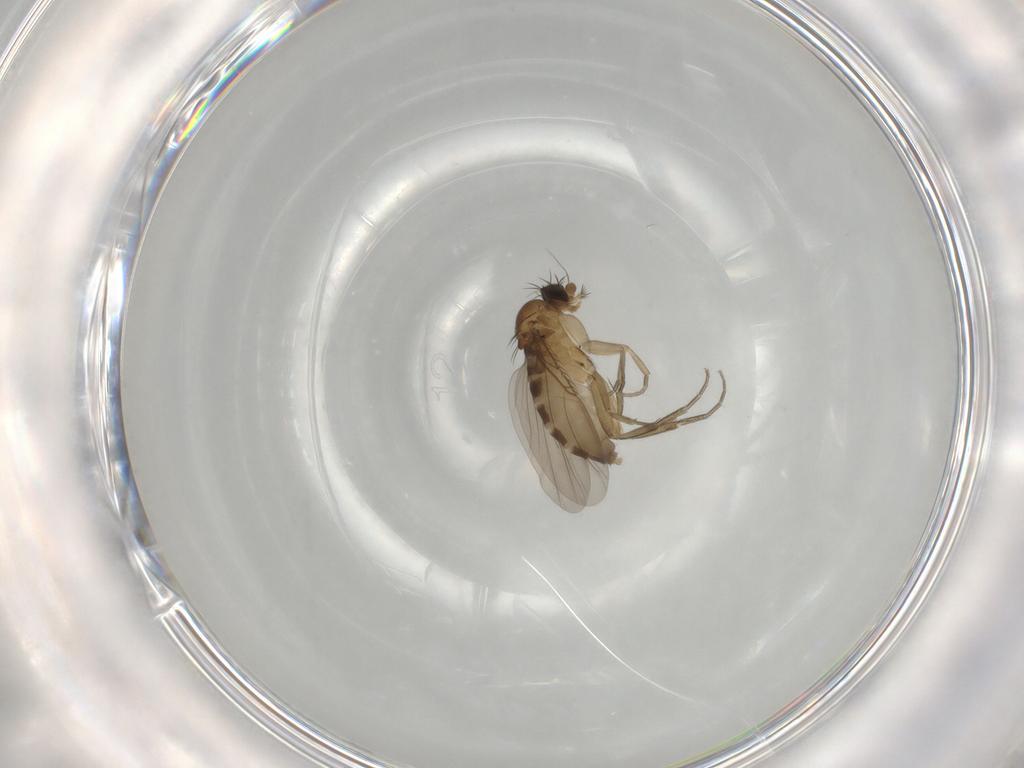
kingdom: Animalia
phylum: Arthropoda
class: Insecta
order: Diptera
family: Phoridae
